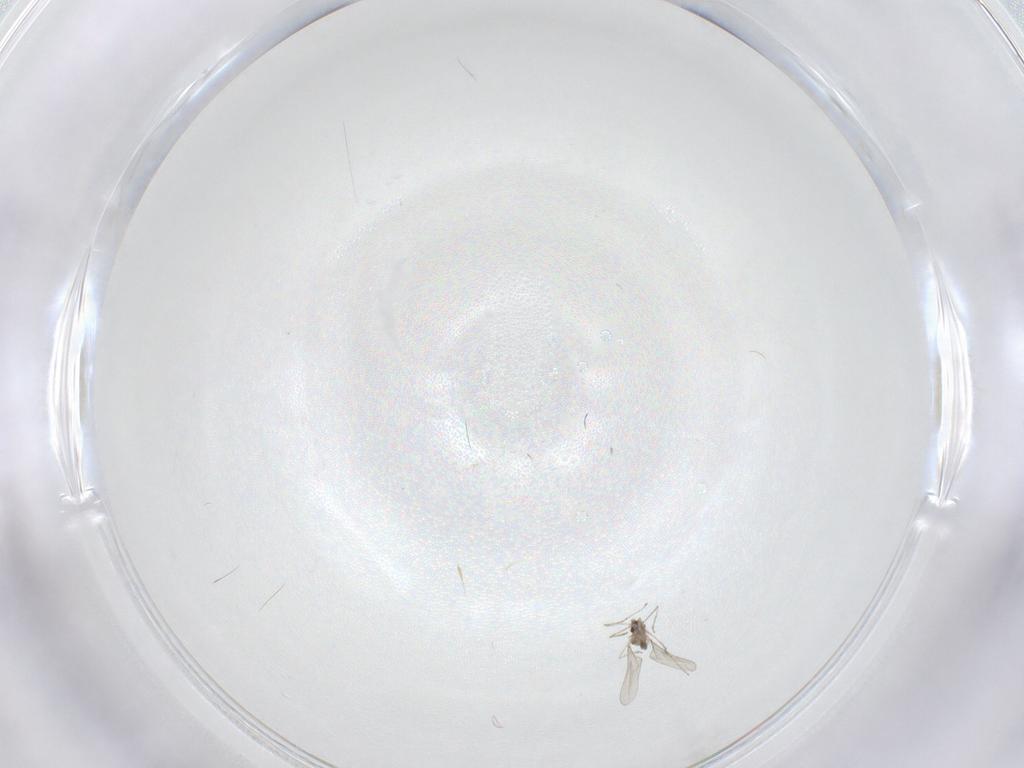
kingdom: Animalia
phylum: Arthropoda
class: Insecta
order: Diptera
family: Cecidomyiidae
